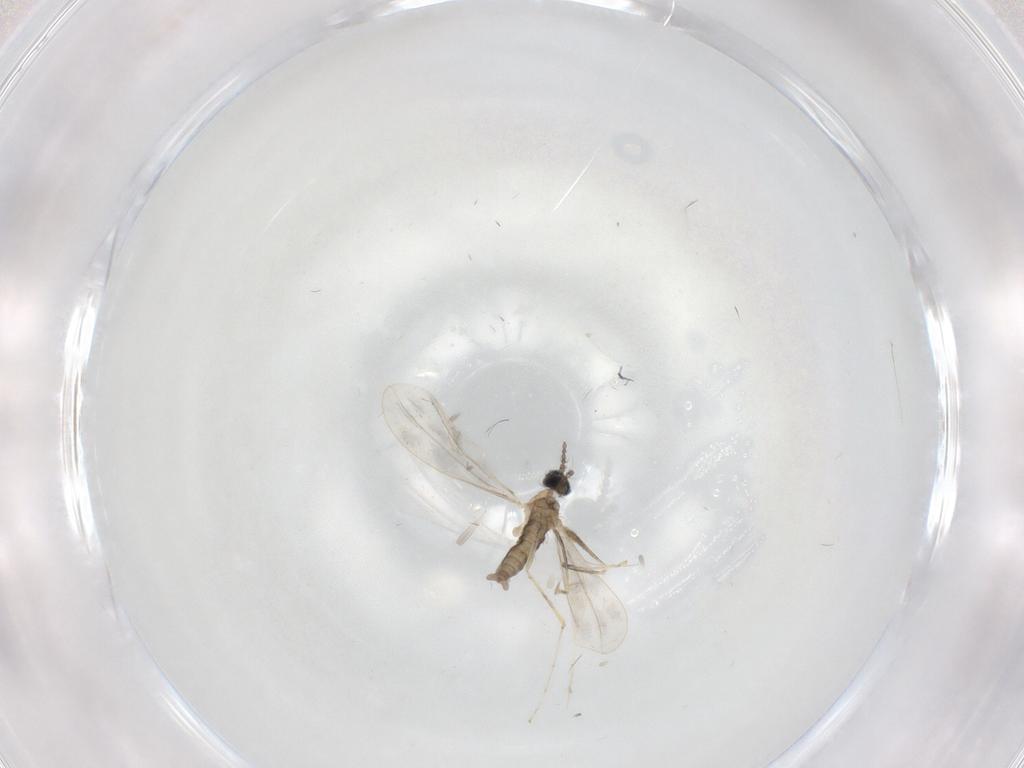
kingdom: Animalia
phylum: Arthropoda
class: Insecta
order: Diptera
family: Cecidomyiidae
